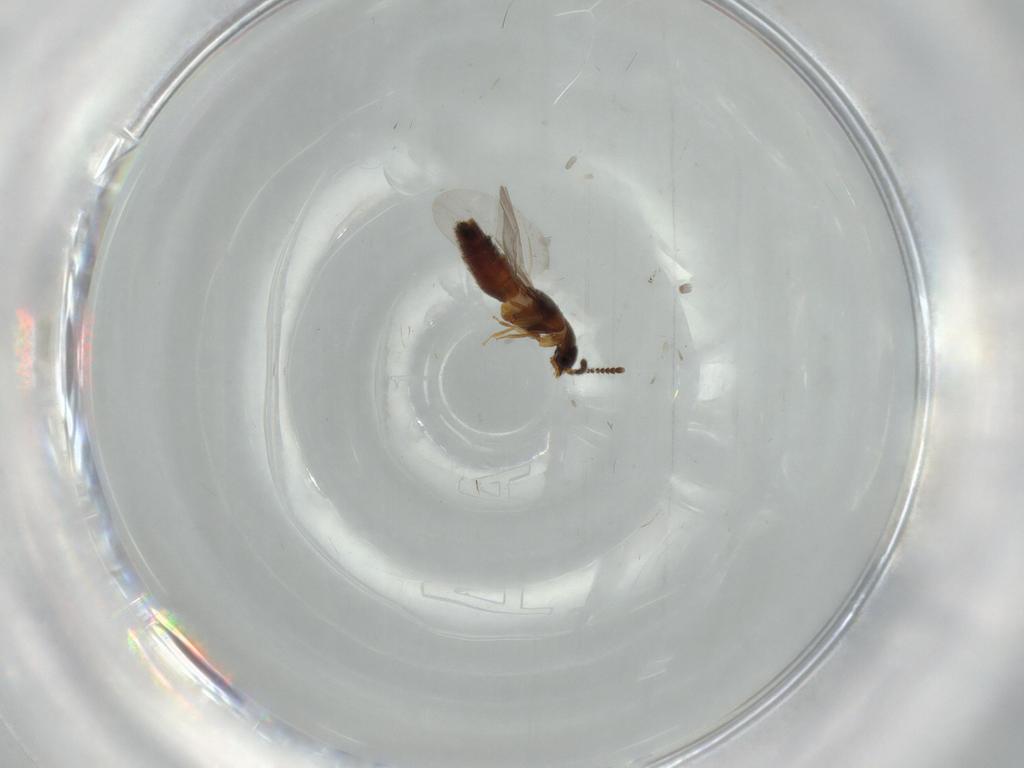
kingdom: Animalia
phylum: Arthropoda
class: Insecta
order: Coleoptera
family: Staphylinidae
